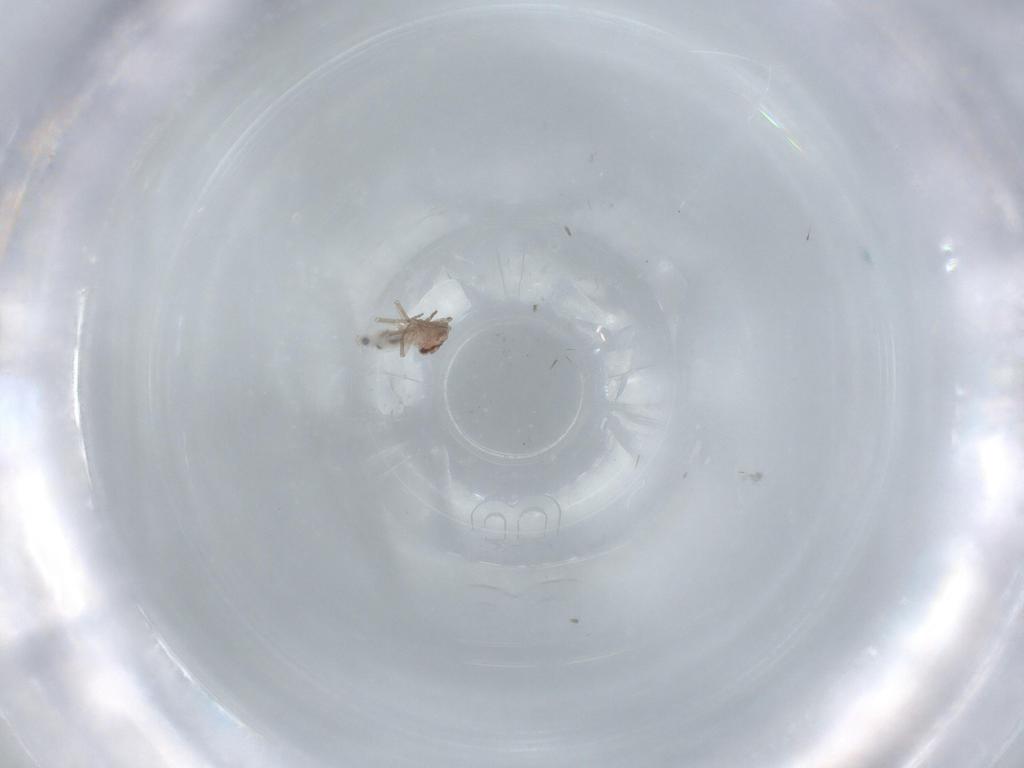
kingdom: Animalia
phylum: Arthropoda
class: Insecta
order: Psocodea
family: Lepidopsocidae
